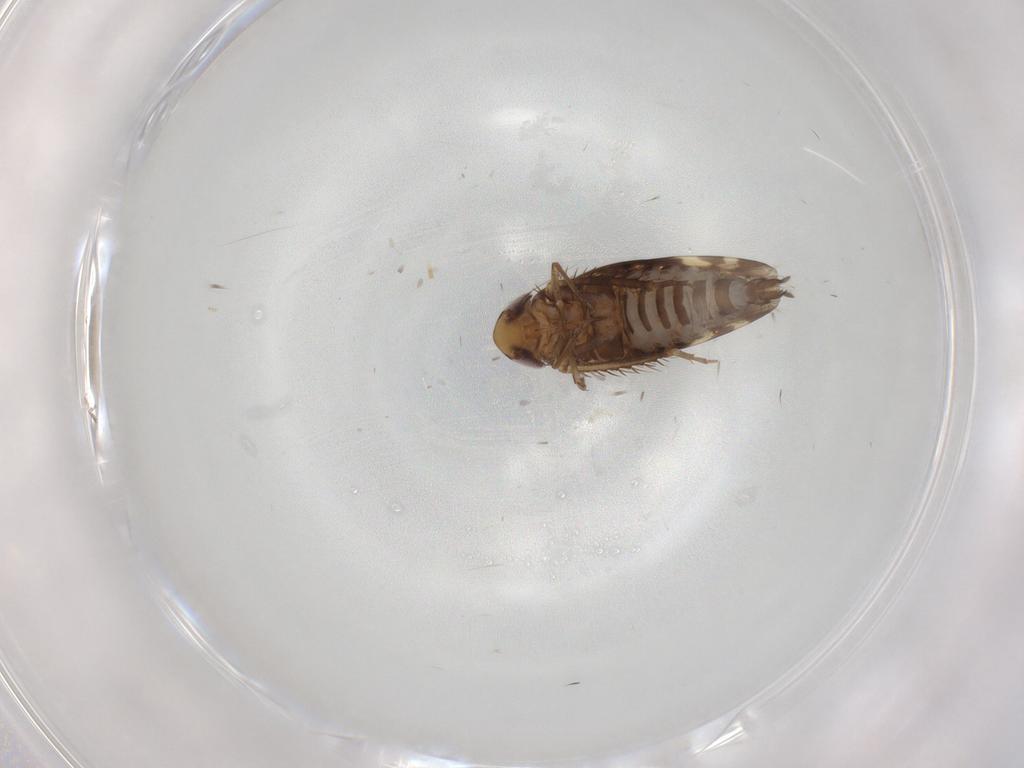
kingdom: Animalia
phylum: Arthropoda
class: Insecta
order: Hemiptera
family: Cicadellidae
